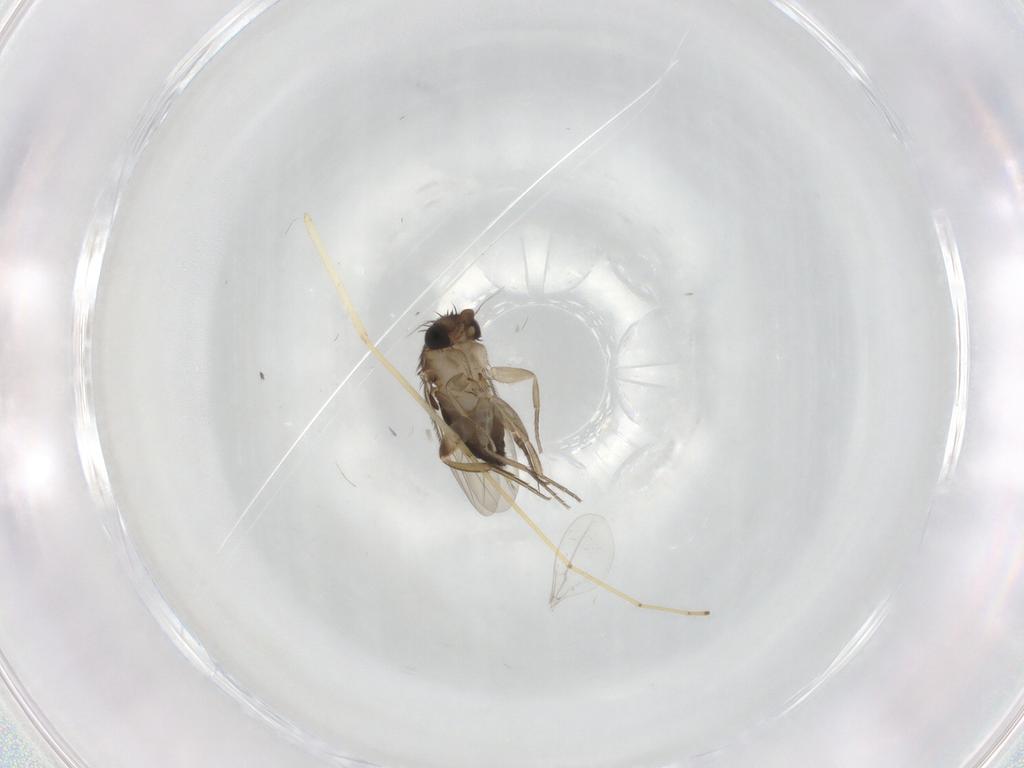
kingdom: Animalia
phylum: Arthropoda
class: Insecta
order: Diptera
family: Phoridae
